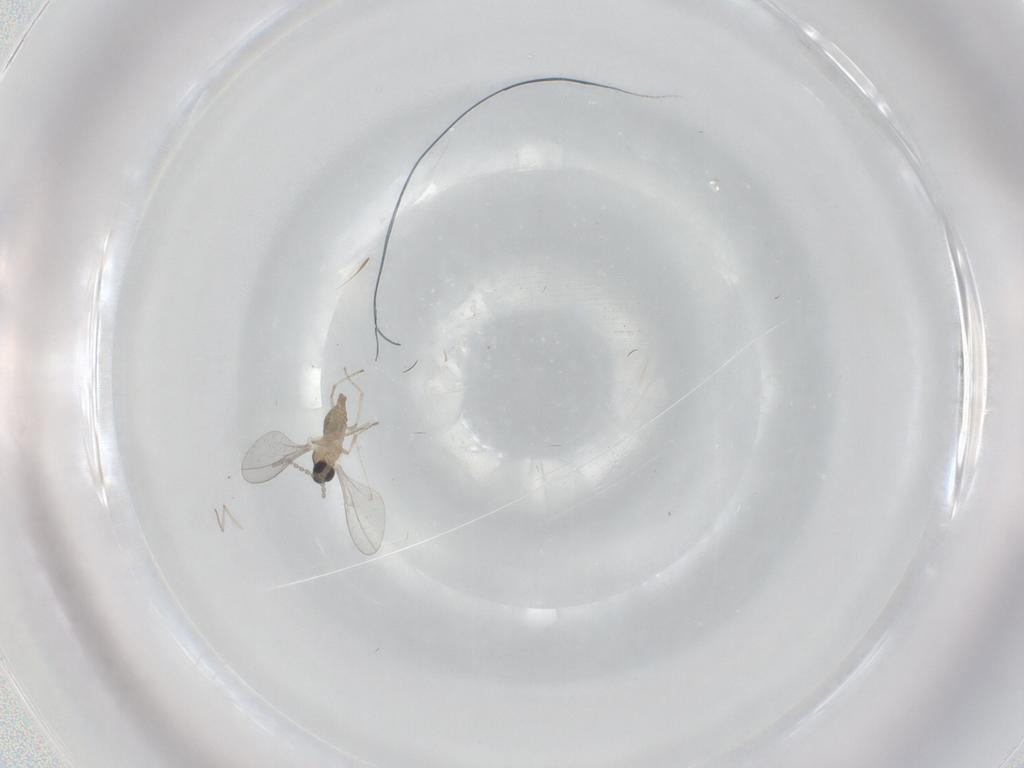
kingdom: Animalia
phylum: Arthropoda
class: Insecta
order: Diptera
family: Cecidomyiidae
